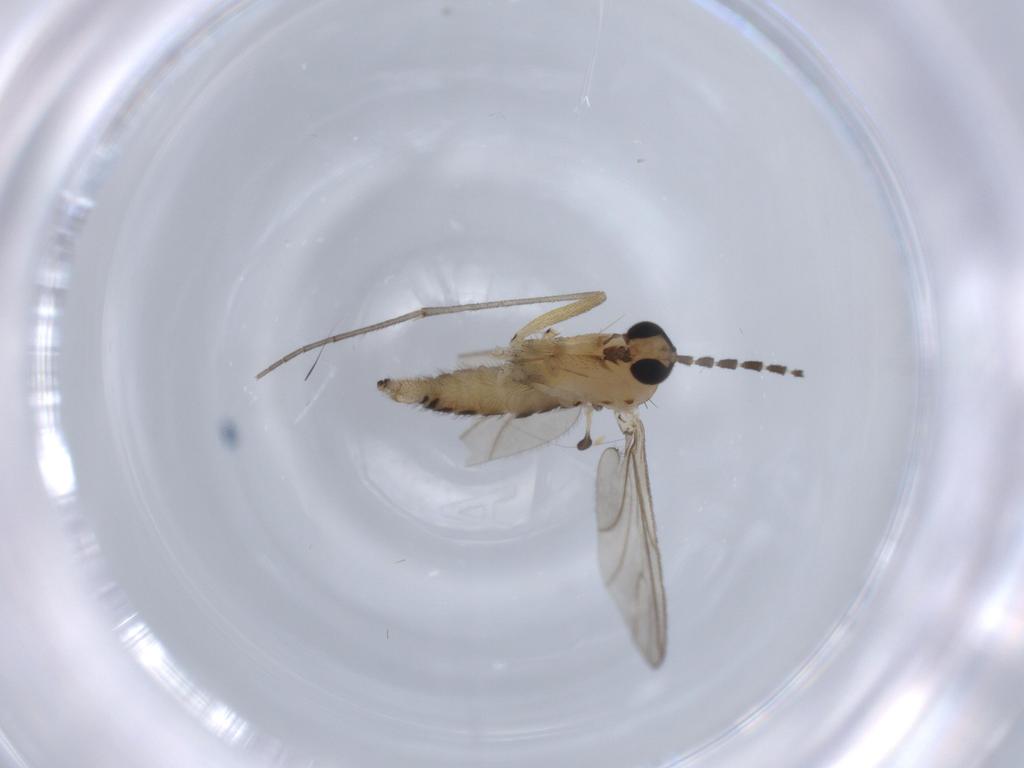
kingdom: Animalia
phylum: Arthropoda
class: Insecta
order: Diptera
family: Sciaridae
